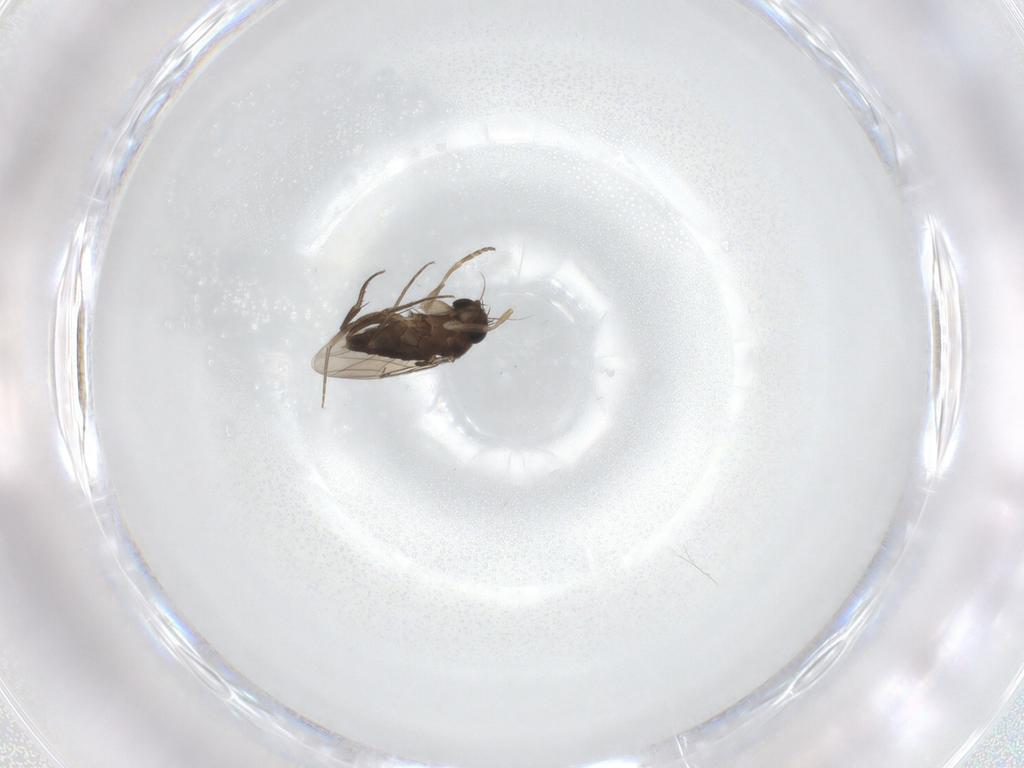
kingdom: Animalia
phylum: Arthropoda
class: Insecta
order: Diptera
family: Phoridae
